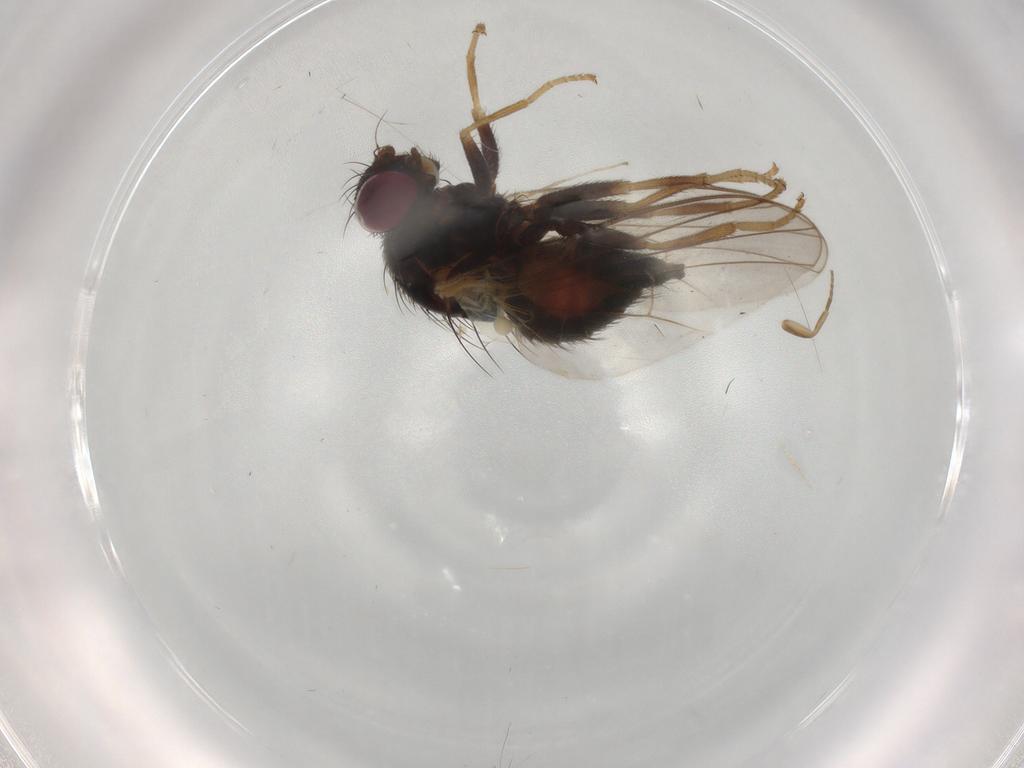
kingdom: Animalia
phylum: Arthropoda
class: Insecta
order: Diptera
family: Phoridae
